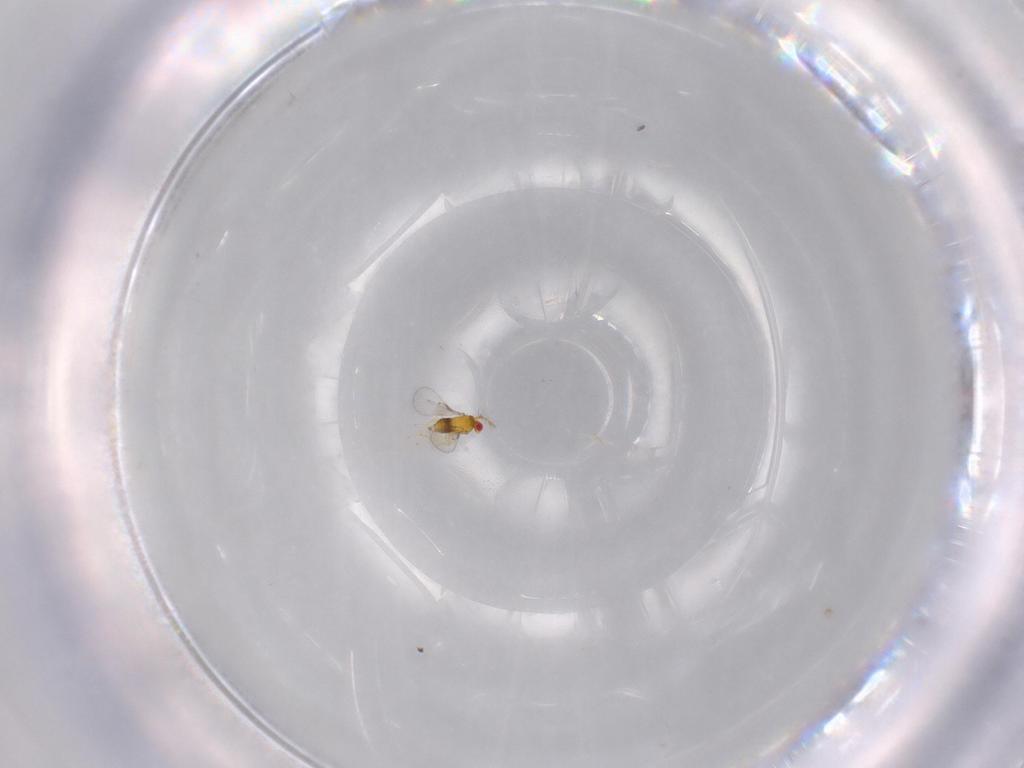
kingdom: Animalia
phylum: Arthropoda
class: Insecta
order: Hymenoptera
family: Trichogrammatidae
